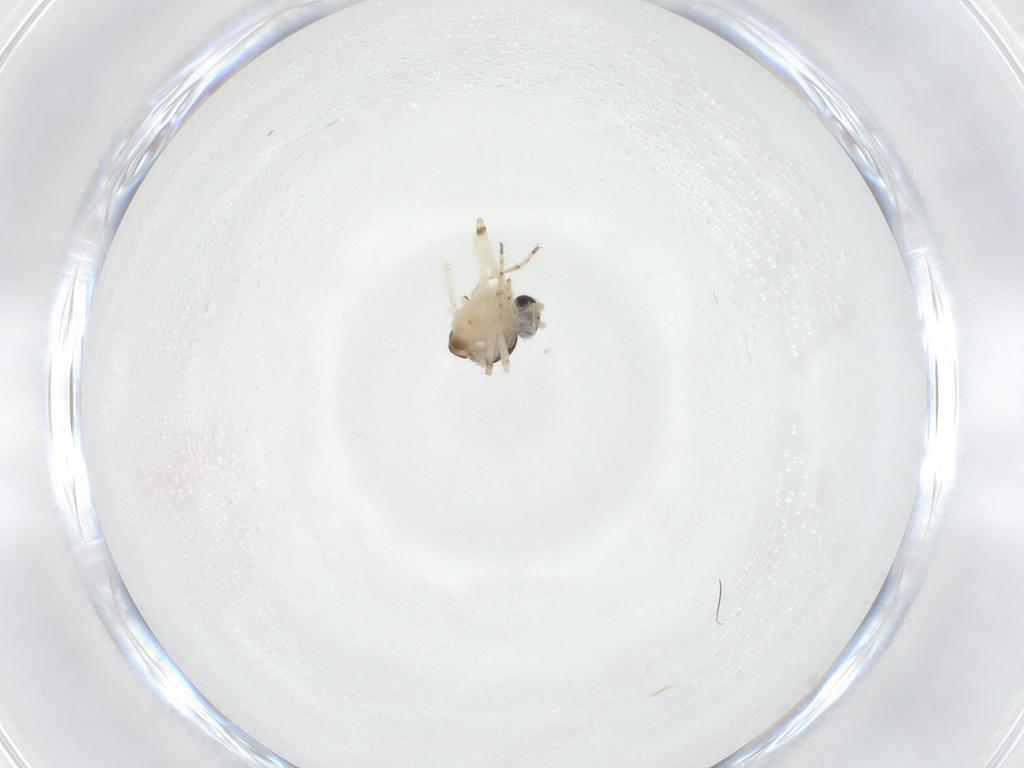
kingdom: Animalia
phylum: Arthropoda
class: Insecta
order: Diptera
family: Ceratopogonidae
